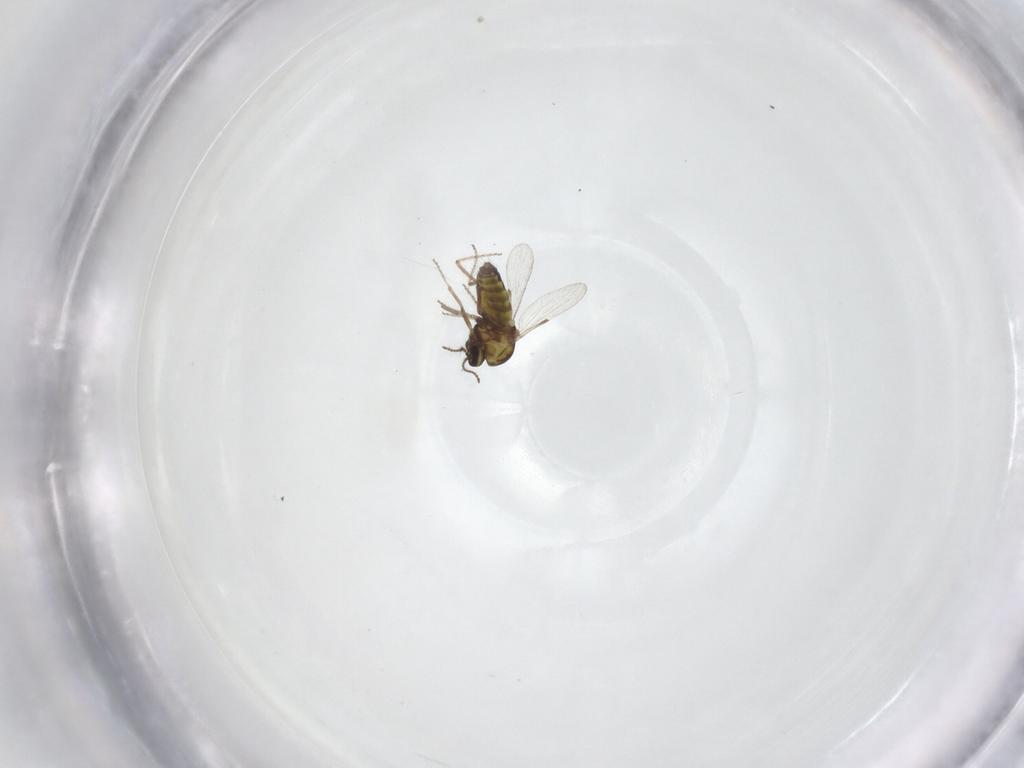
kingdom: Animalia
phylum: Arthropoda
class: Insecta
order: Diptera
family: Ceratopogonidae
